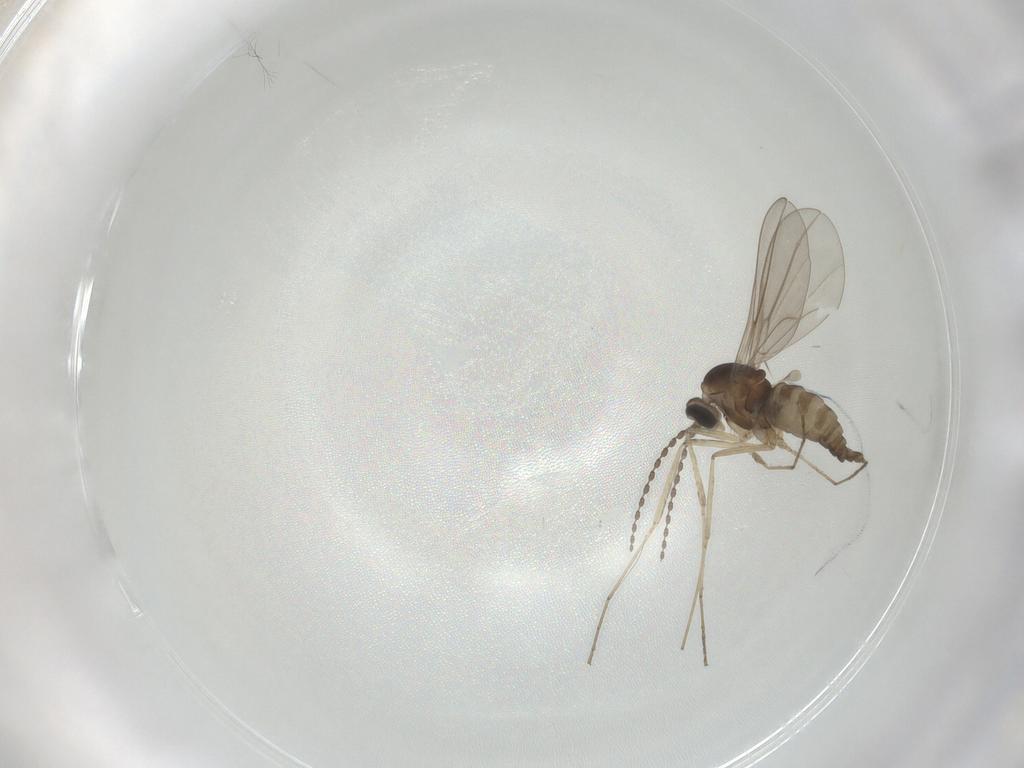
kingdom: Animalia
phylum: Arthropoda
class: Insecta
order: Diptera
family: Cecidomyiidae
